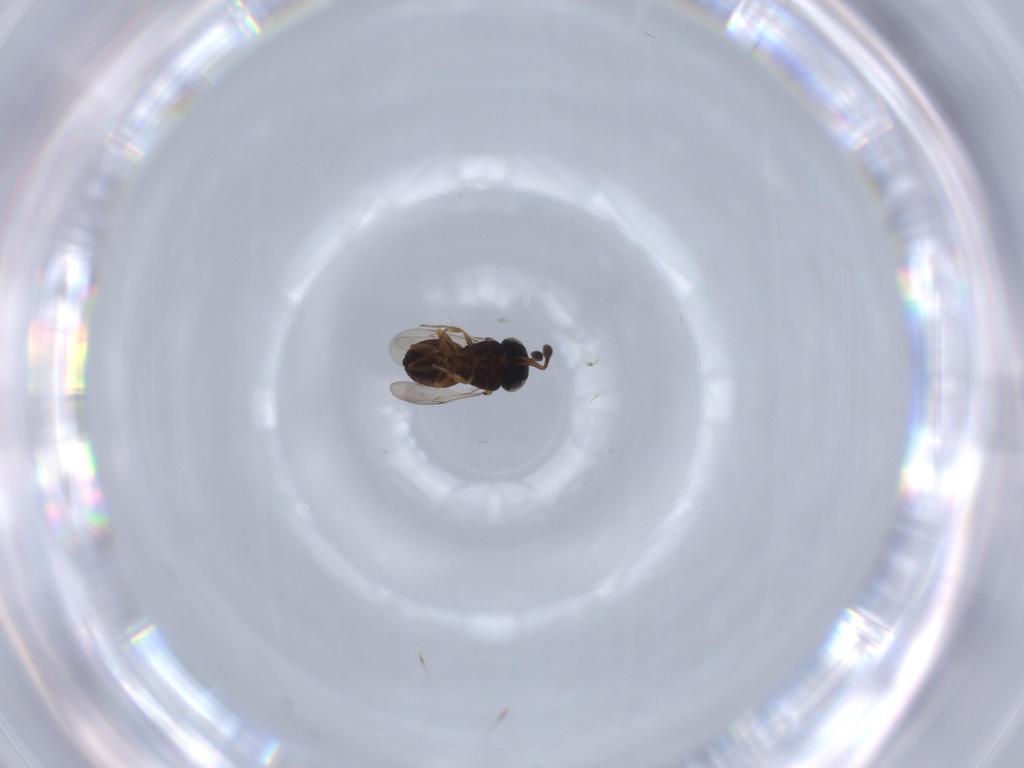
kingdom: Animalia
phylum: Arthropoda
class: Insecta
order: Hymenoptera
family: Scelionidae
